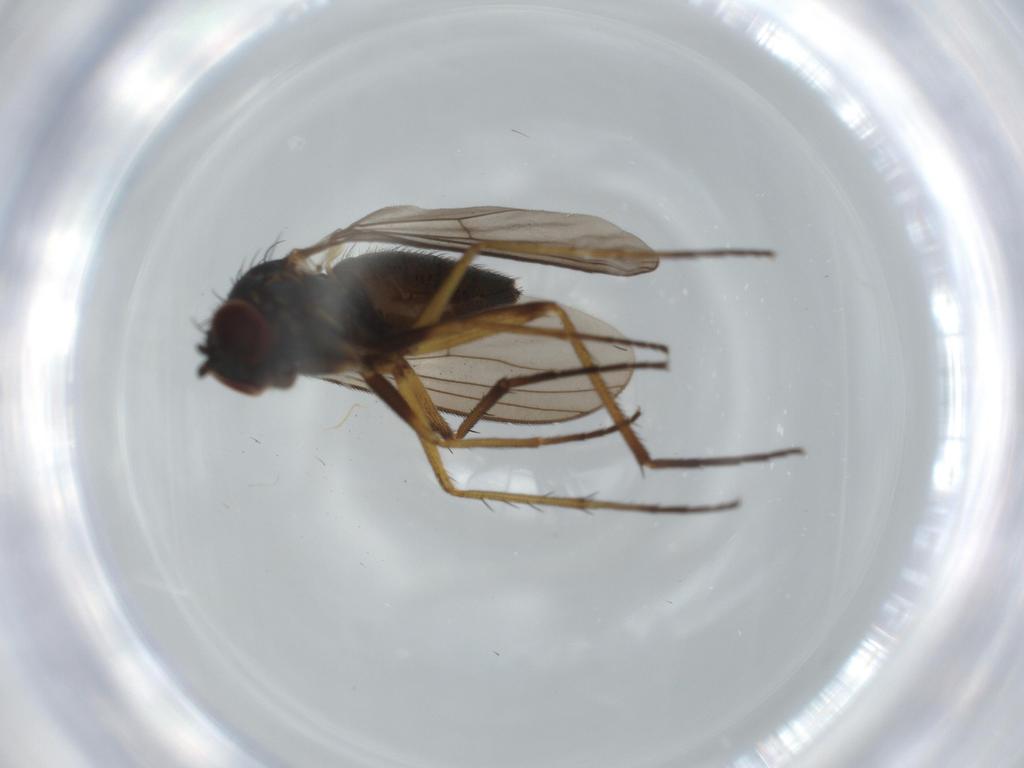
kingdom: Animalia
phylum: Arthropoda
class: Insecta
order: Diptera
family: Dolichopodidae
